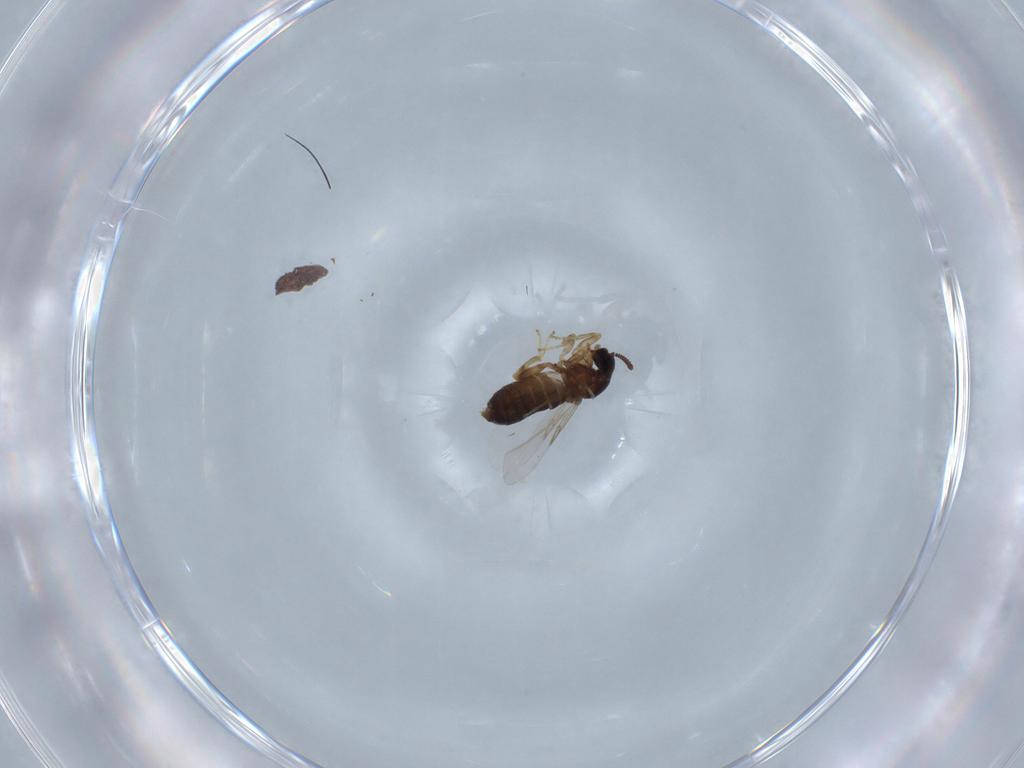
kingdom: Animalia
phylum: Arthropoda
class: Insecta
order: Diptera
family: Scatopsidae
